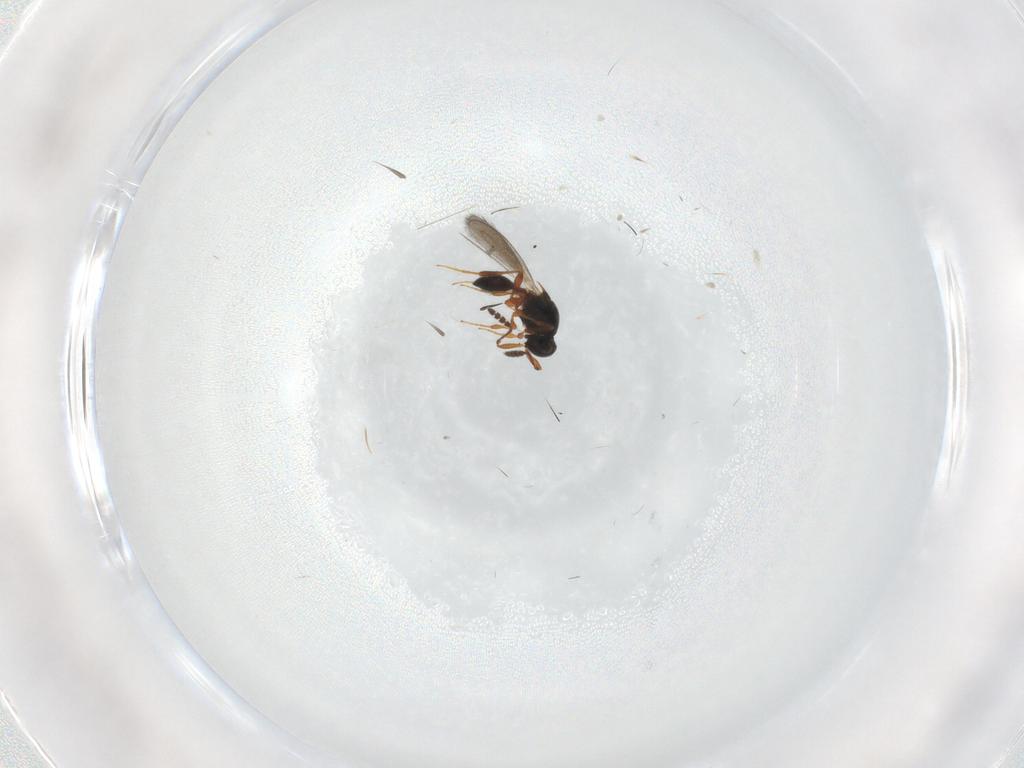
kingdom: Animalia
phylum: Arthropoda
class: Insecta
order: Hymenoptera
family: Platygastridae
